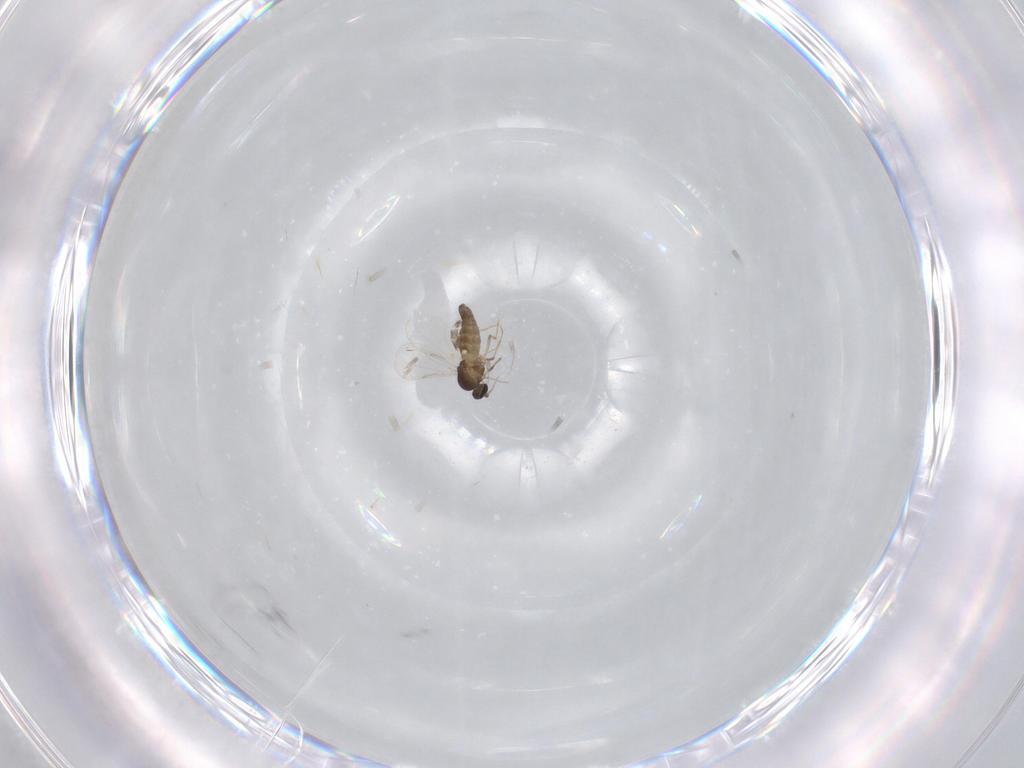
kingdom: Animalia
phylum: Arthropoda
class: Insecta
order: Diptera
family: Ceratopogonidae
